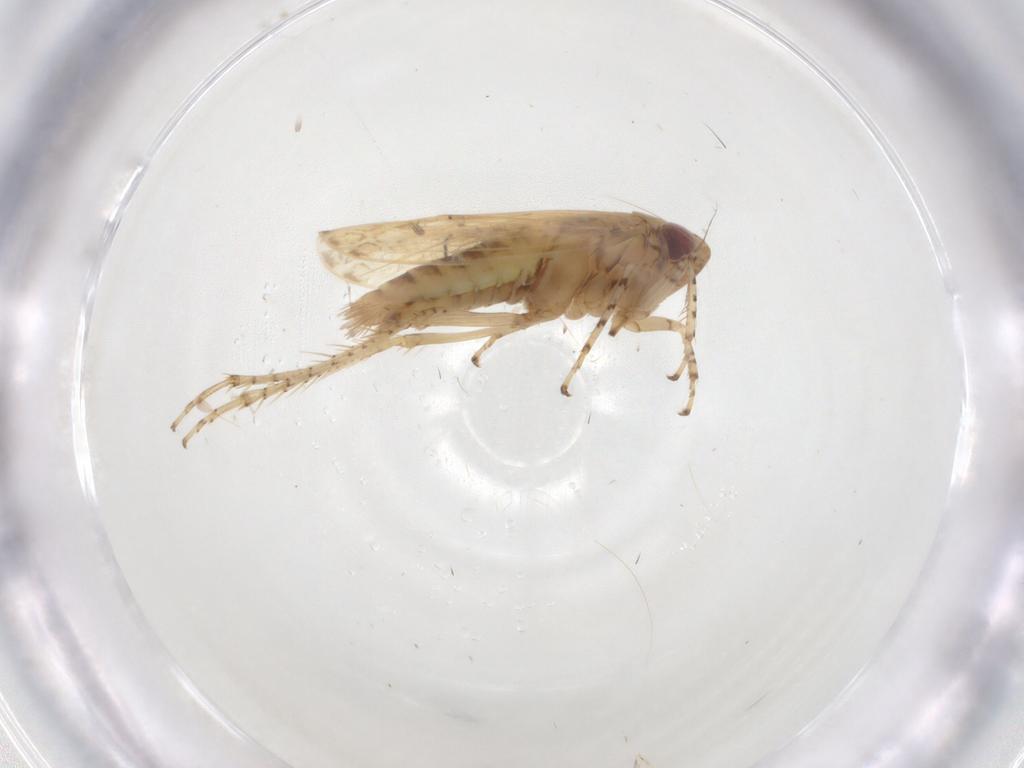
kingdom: Animalia
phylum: Arthropoda
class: Insecta
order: Hemiptera
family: Cicadellidae
